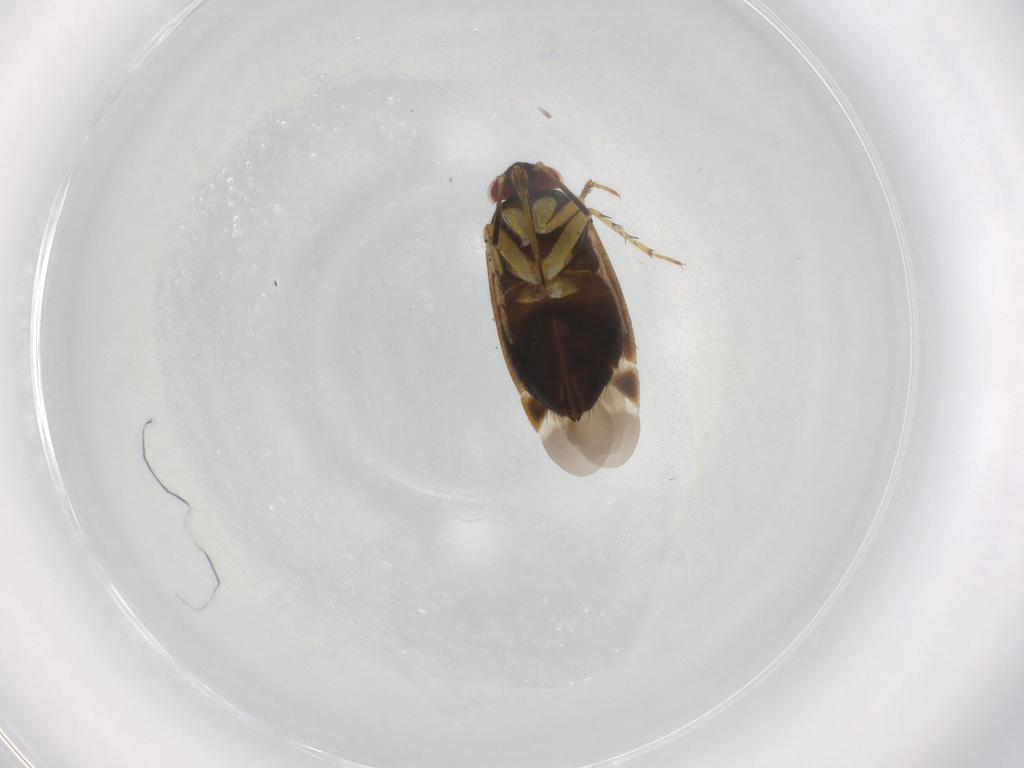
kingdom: Animalia
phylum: Arthropoda
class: Insecta
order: Hemiptera
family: Miridae
